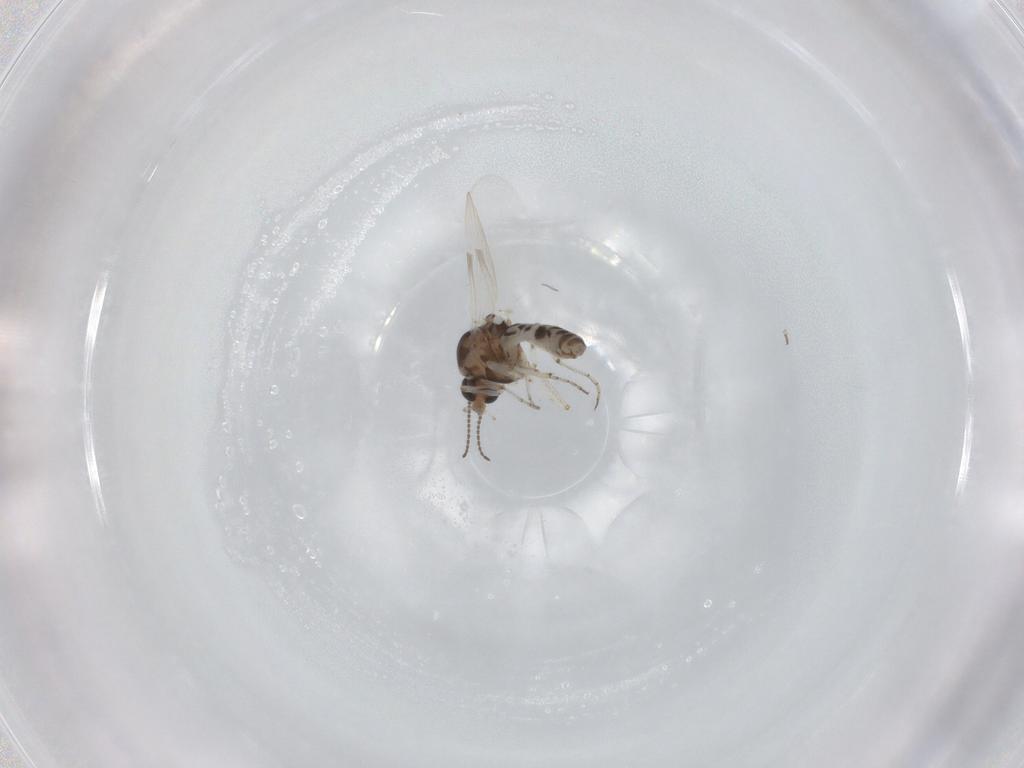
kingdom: Animalia
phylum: Arthropoda
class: Insecta
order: Diptera
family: Ceratopogonidae
